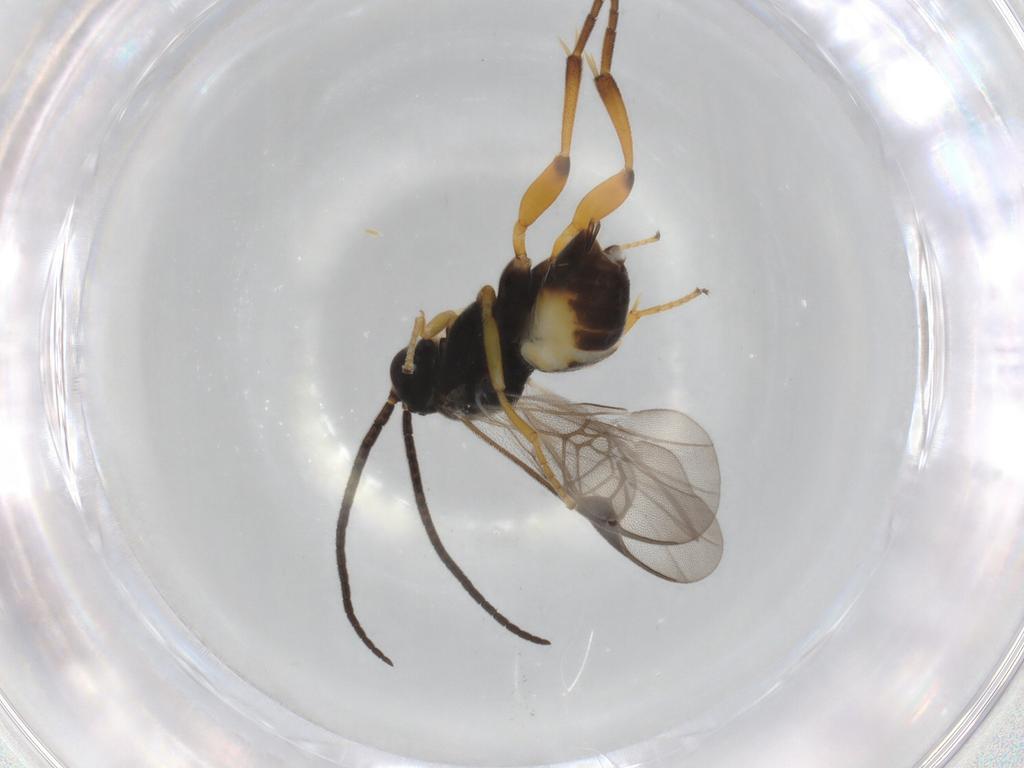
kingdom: Animalia
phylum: Arthropoda
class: Insecta
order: Hymenoptera
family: Braconidae
